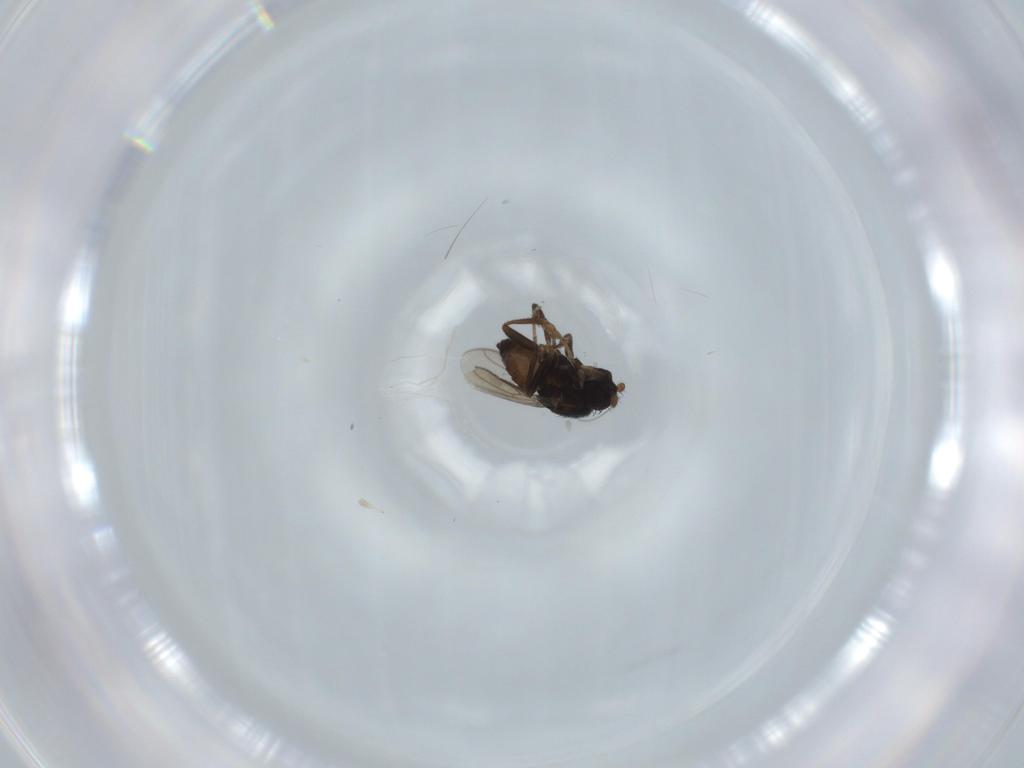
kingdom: Animalia
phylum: Arthropoda
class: Insecta
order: Diptera
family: Sphaeroceridae
